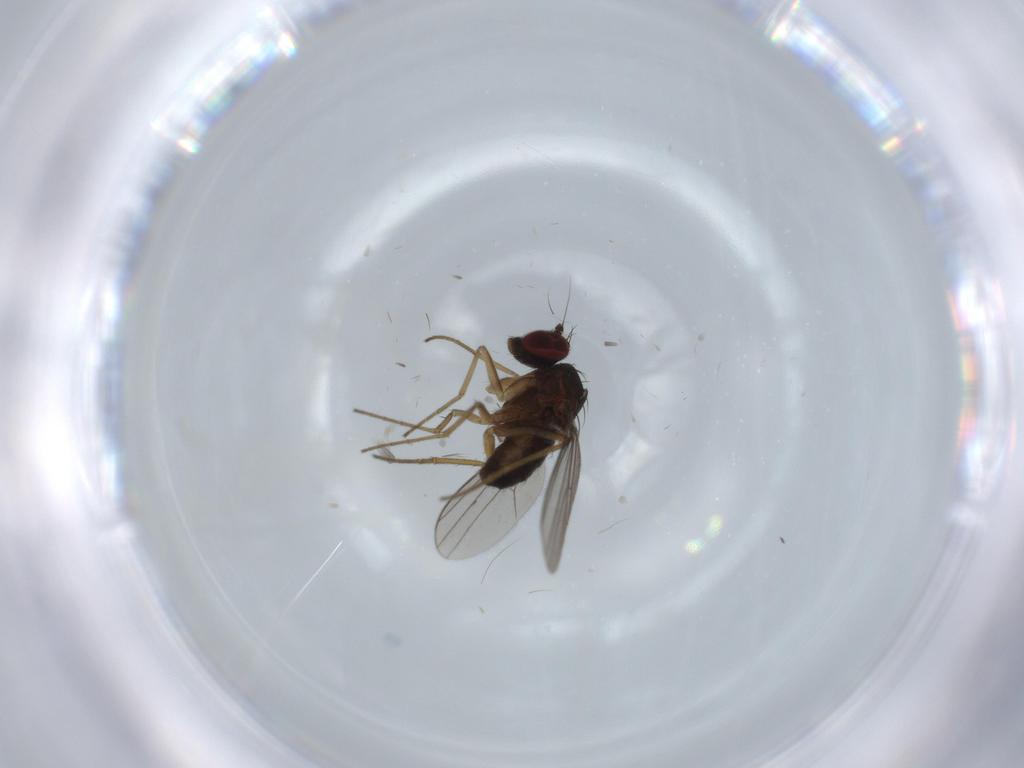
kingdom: Animalia
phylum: Arthropoda
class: Insecta
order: Diptera
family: Dolichopodidae
